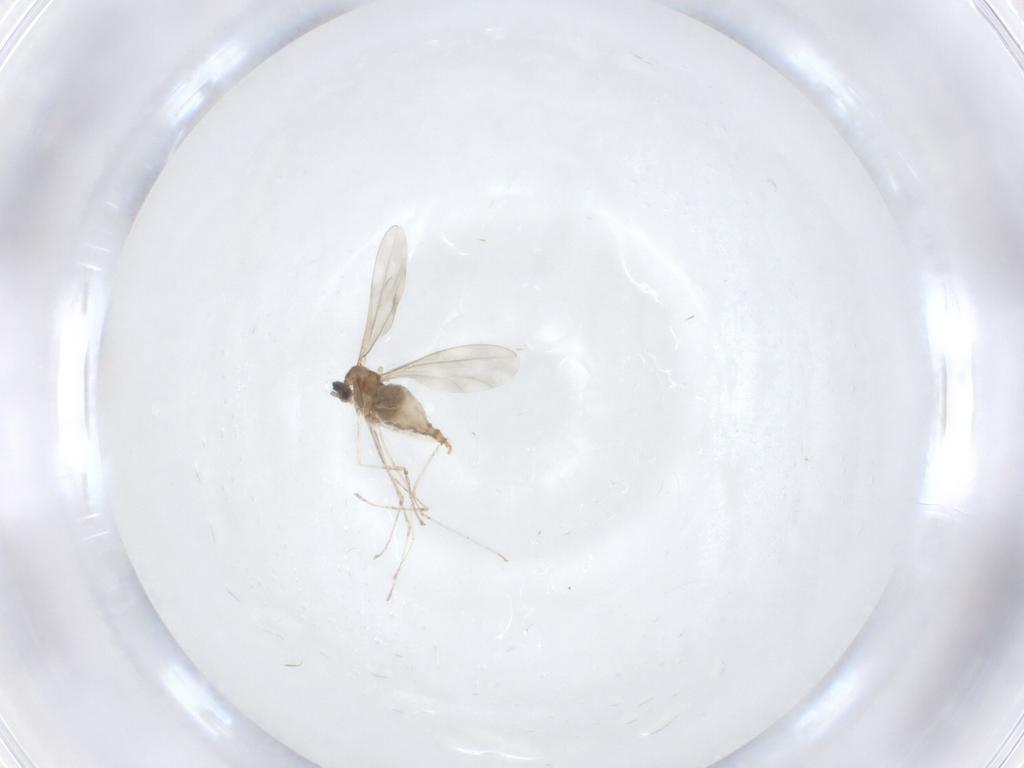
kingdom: Animalia
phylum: Arthropoda
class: Insecta
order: Diptera
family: Cecidomyiidae
